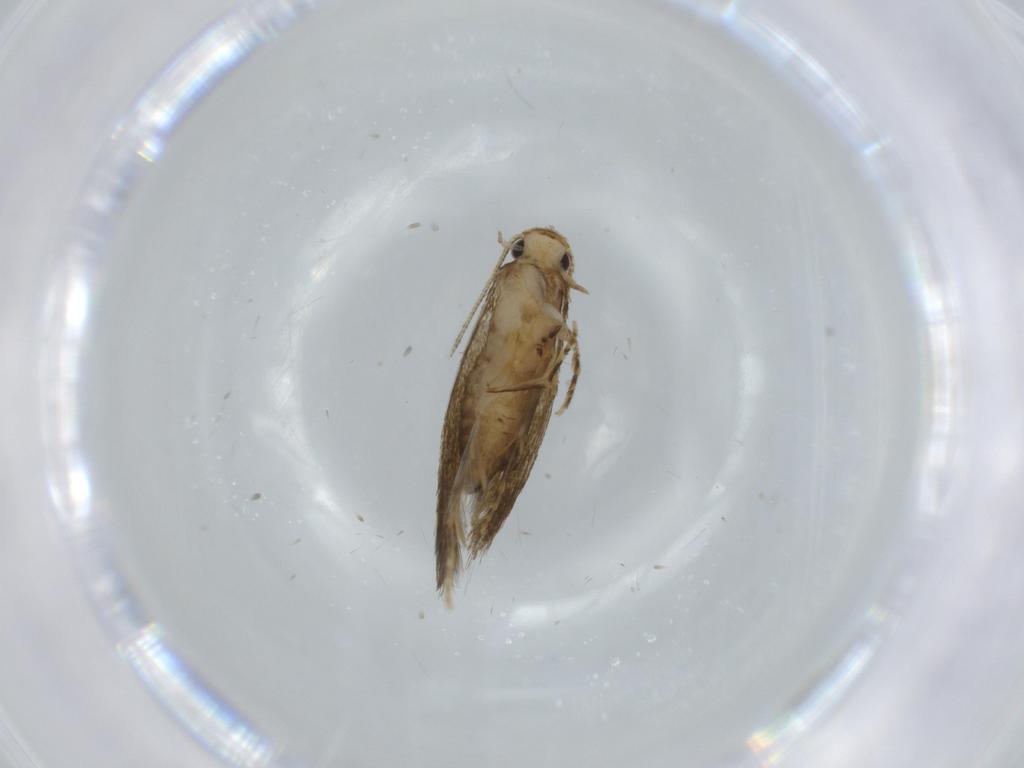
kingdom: Animalia
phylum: Arthropoda
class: Insecta
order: Lepidoptera
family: Tineidae
